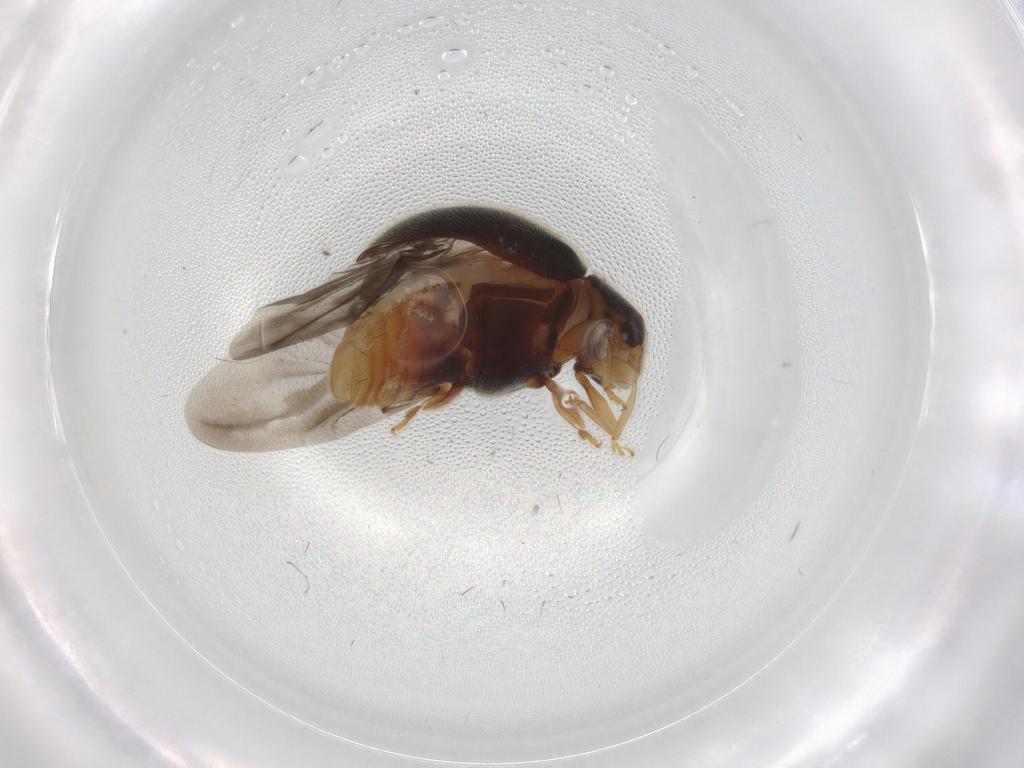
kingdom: Animalia
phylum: Arthropoda
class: Insecta
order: Coleoptera
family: Coccinellidae
